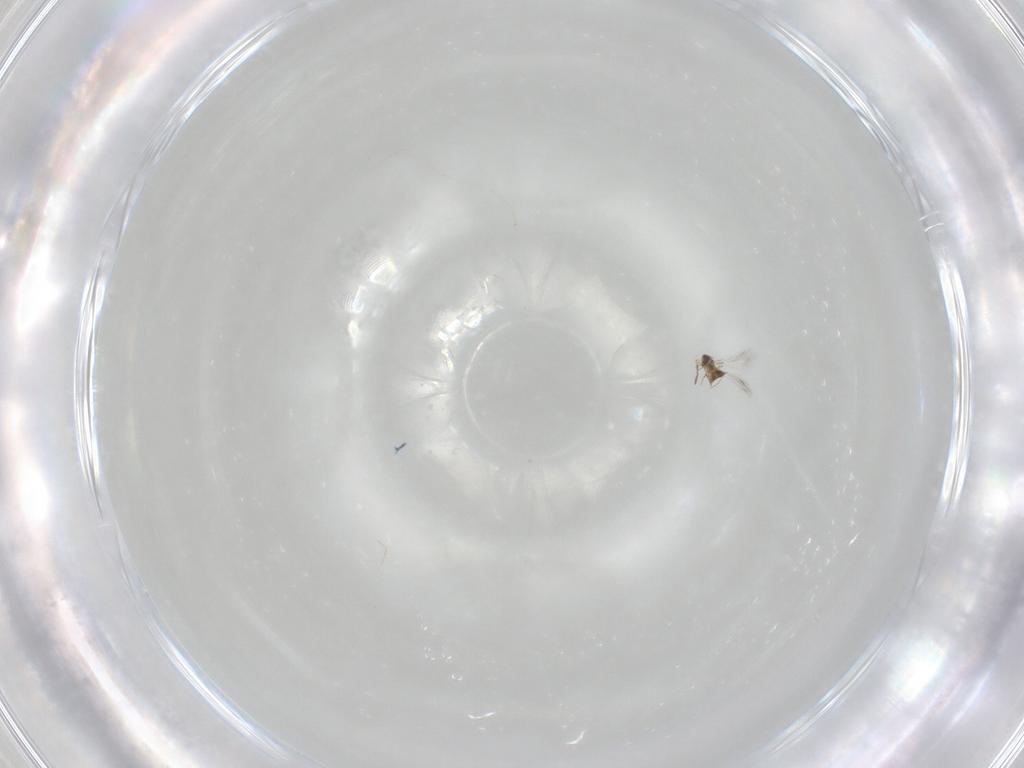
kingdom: Animalia
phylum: Arthropoda
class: Insecta
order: Hymenoptera
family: Mymaridae
